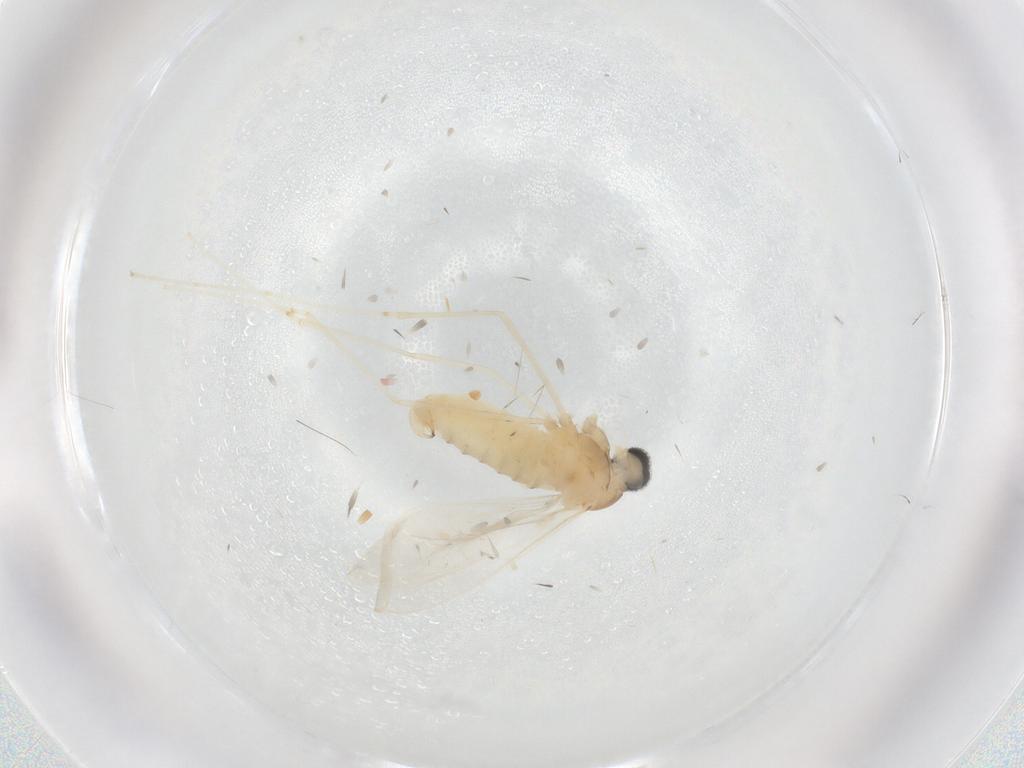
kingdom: Animalia
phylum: Arthropoda
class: Insecta
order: Diptera
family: Cecidomyiidae
